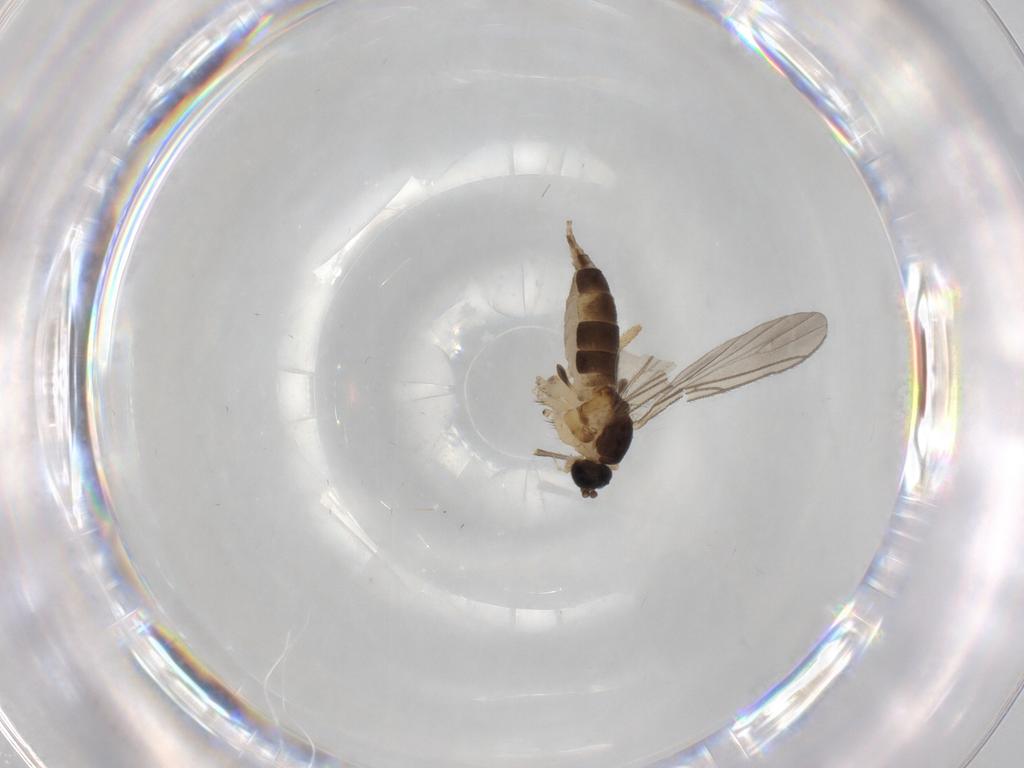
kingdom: Animalia
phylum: Arthropoda
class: Insecta
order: Diptera
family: Sciaridae
